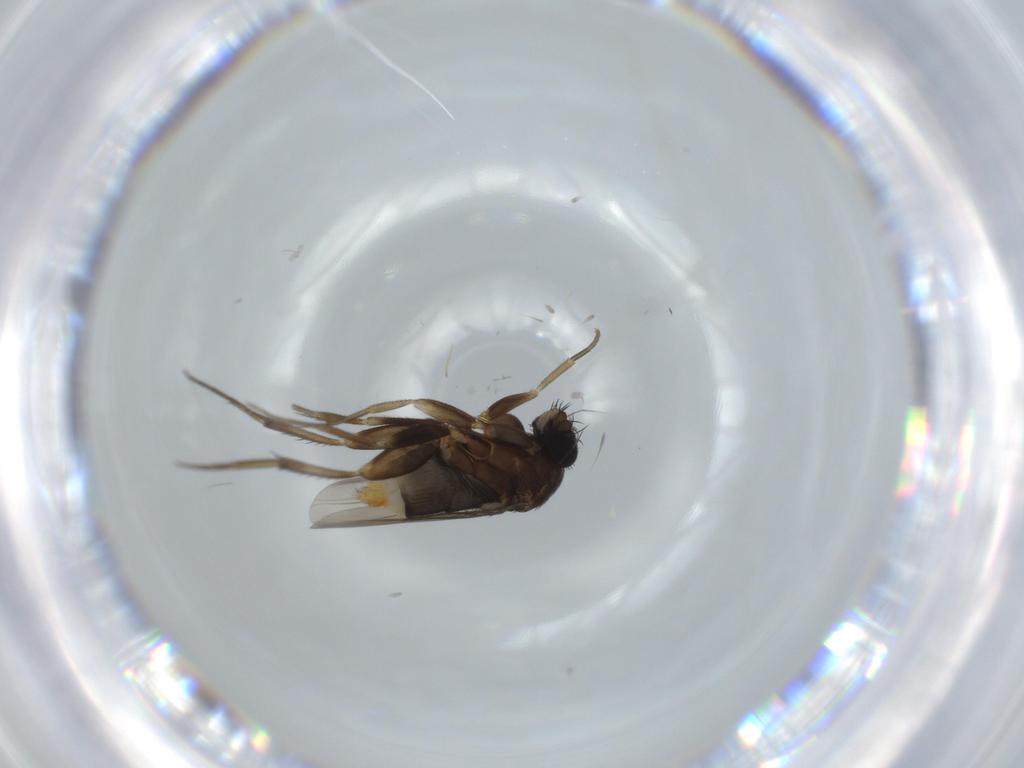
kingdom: Animalia
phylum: Arthropoda
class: Insecta
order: Diptera
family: Phoridae
